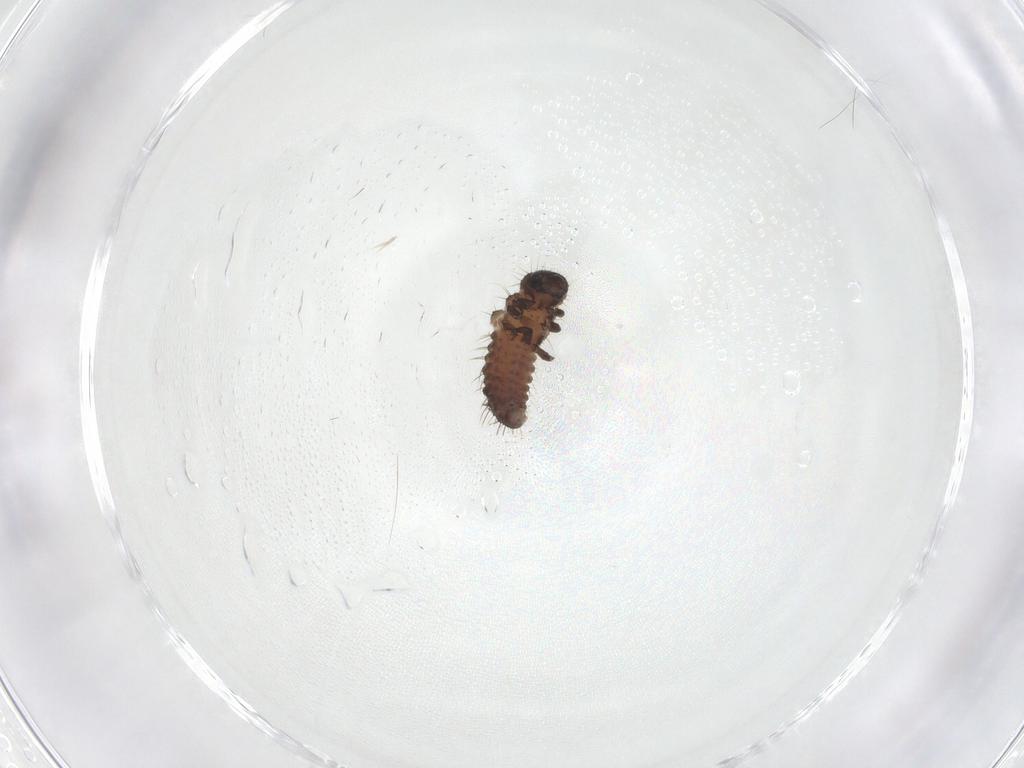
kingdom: Animalia
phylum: Arthropoda
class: Insecta
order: Coleoptera
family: Chrysomelidae
